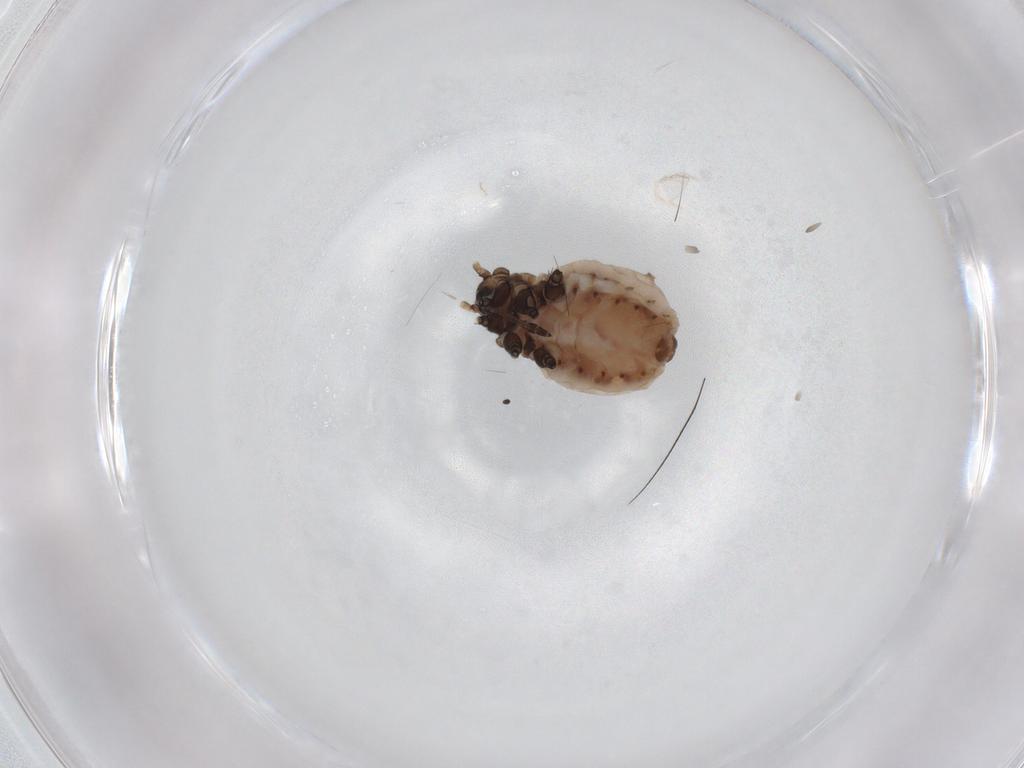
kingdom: Animalia
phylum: Arthropoda
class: Insecta
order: Hemiptera
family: Aphididae
